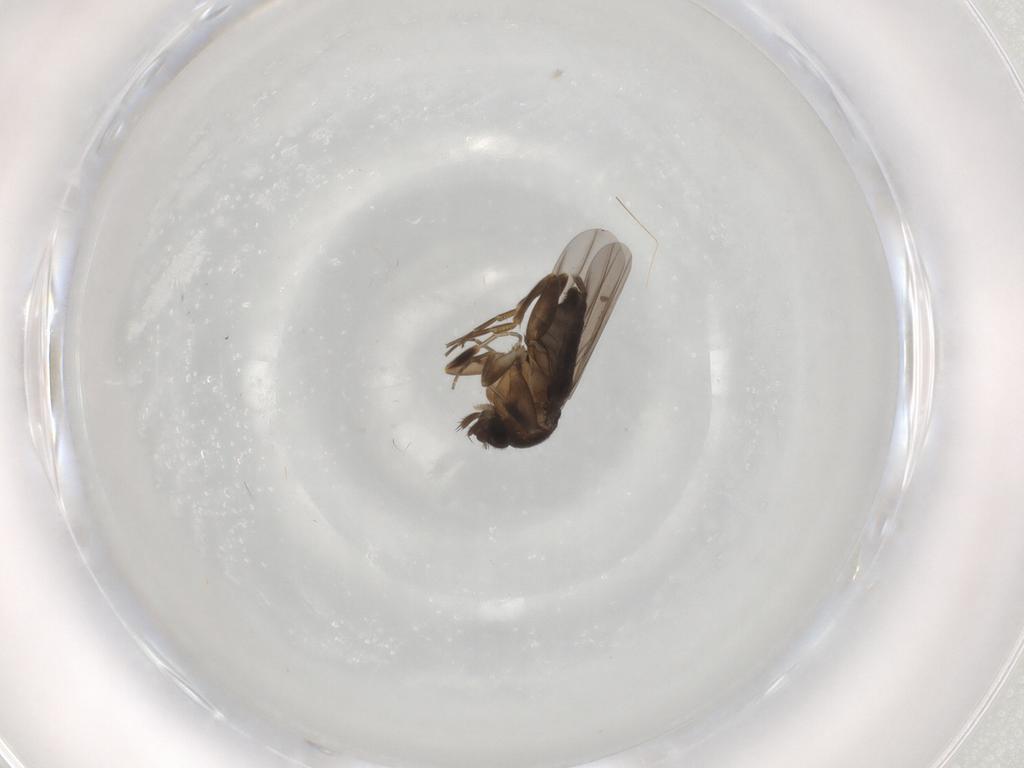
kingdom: Animalia
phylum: Arthropoda
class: Insecta
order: Diptera
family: Phoridae
